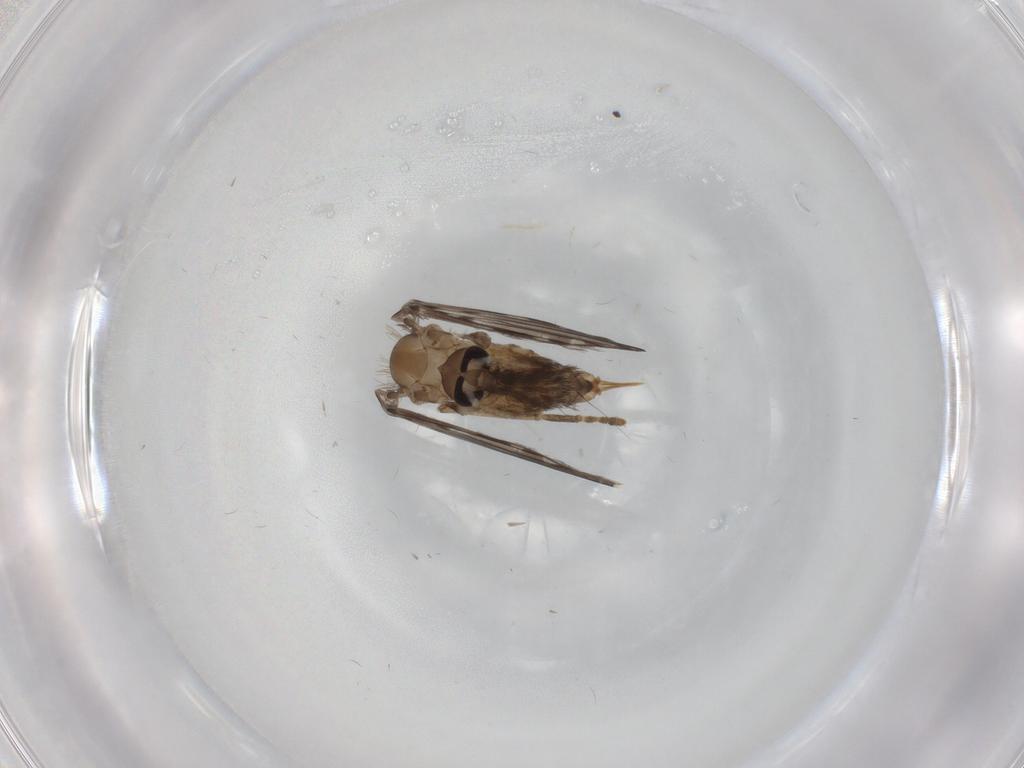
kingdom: Animalia
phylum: Arthropoda
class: Insecta
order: Diptera
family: Psychodidae
